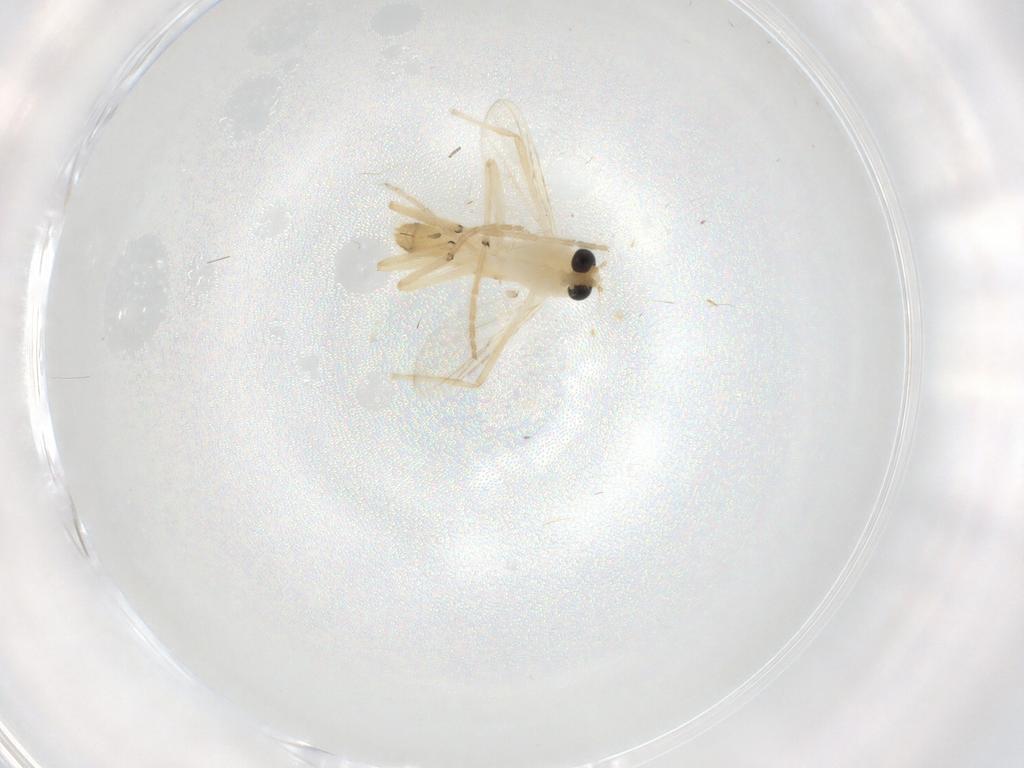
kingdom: Animalia
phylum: Arthropoda
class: Insecta
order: Diptera
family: Chironomidae
